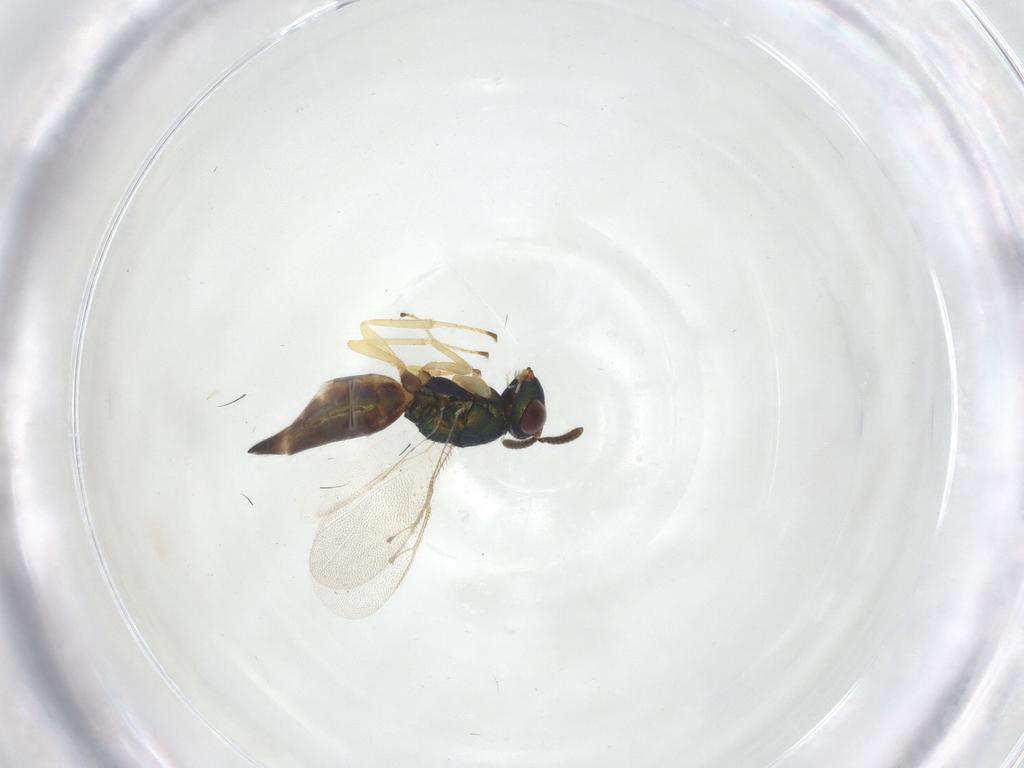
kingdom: Animalia
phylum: Arthropoda
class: Insecta
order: Hymenoptera
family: Pteromalidae
